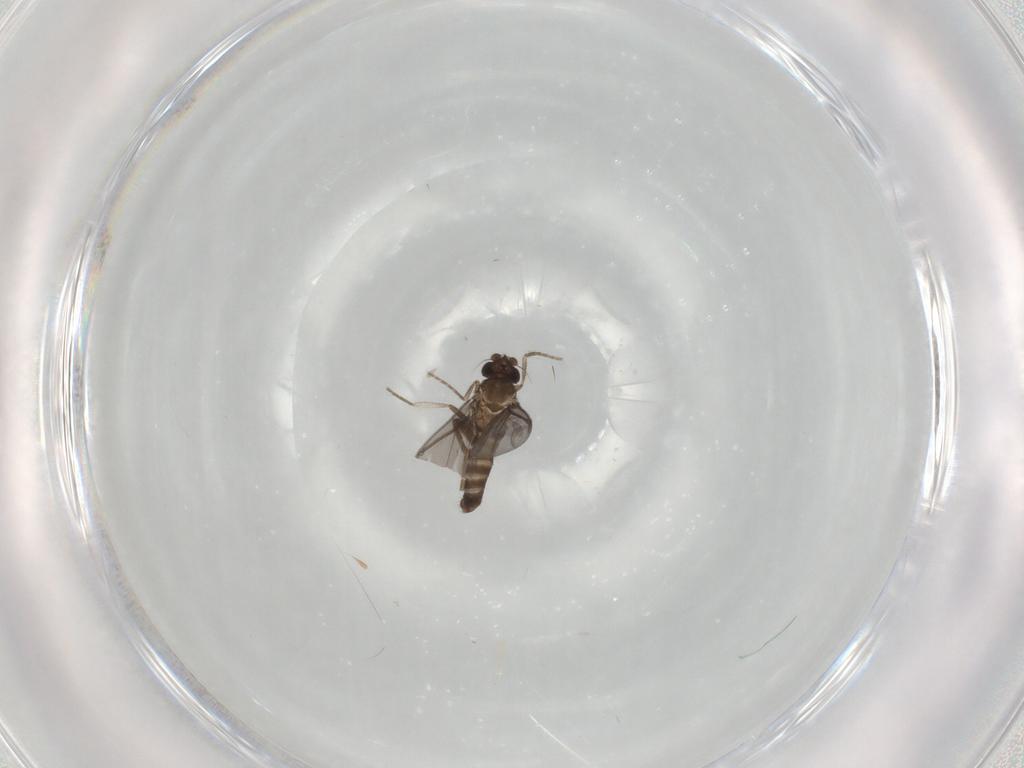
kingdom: Animalia
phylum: Arthropoda
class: Insecta
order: Diptera
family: Phoridae
